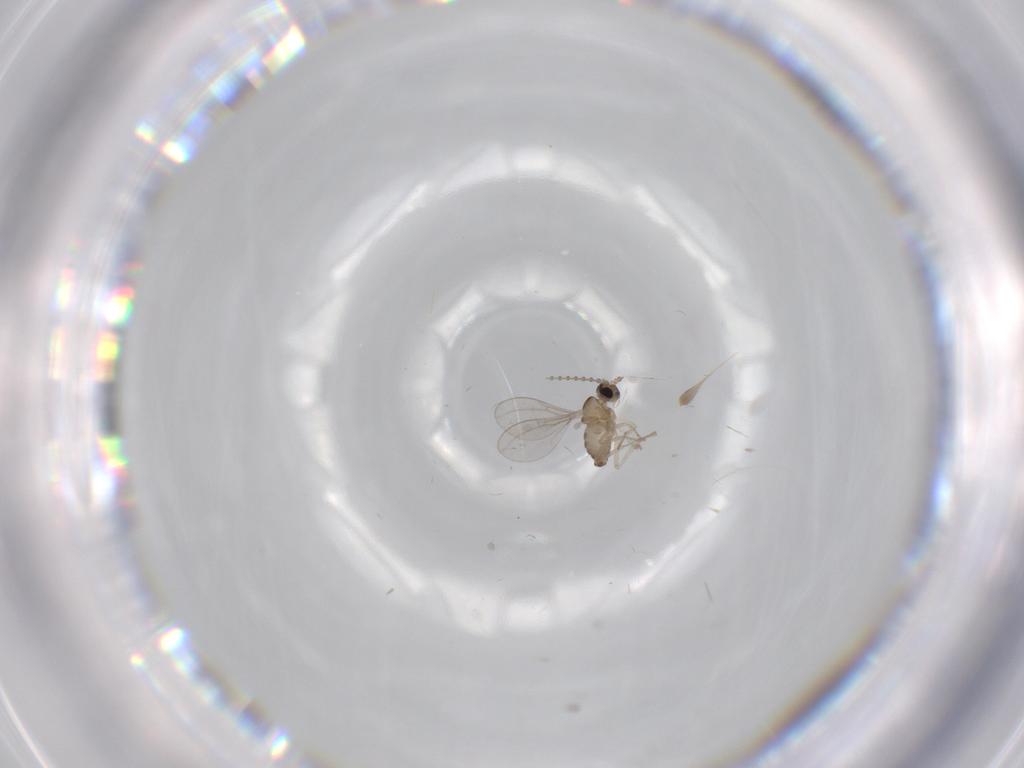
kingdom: Animalia
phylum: Arthropoda
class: Insecta
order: Diptera
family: Cecidomyiidae
